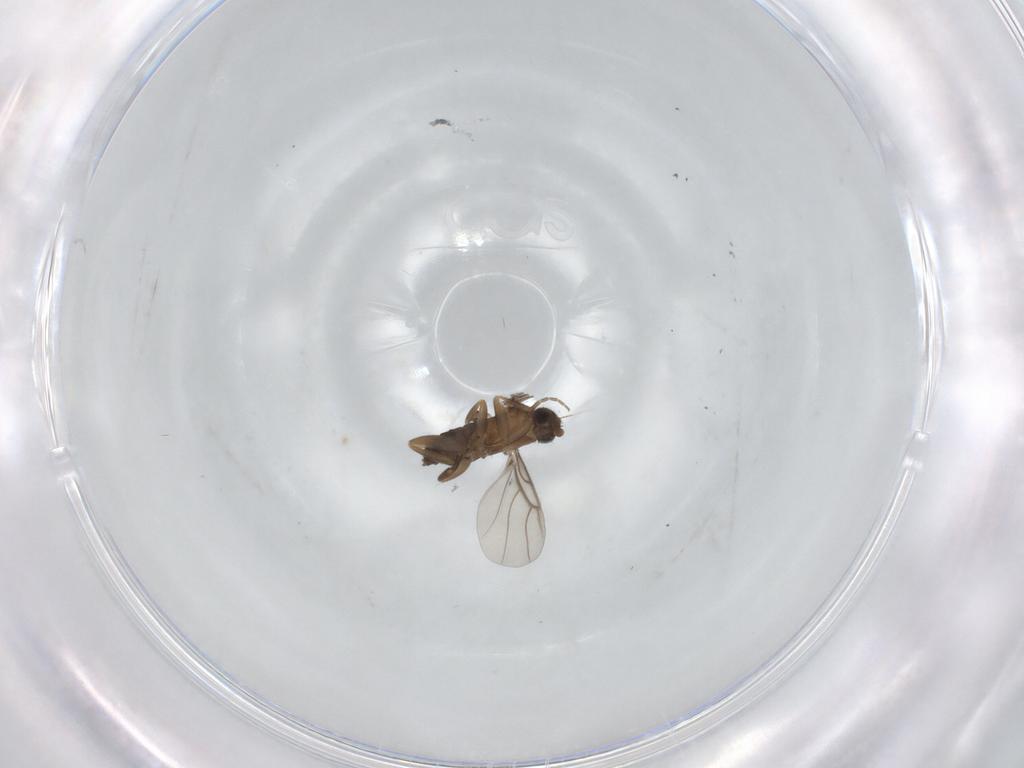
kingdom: Animalia
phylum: Arthropoda
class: Insecta
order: Diptera
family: Phoridae
